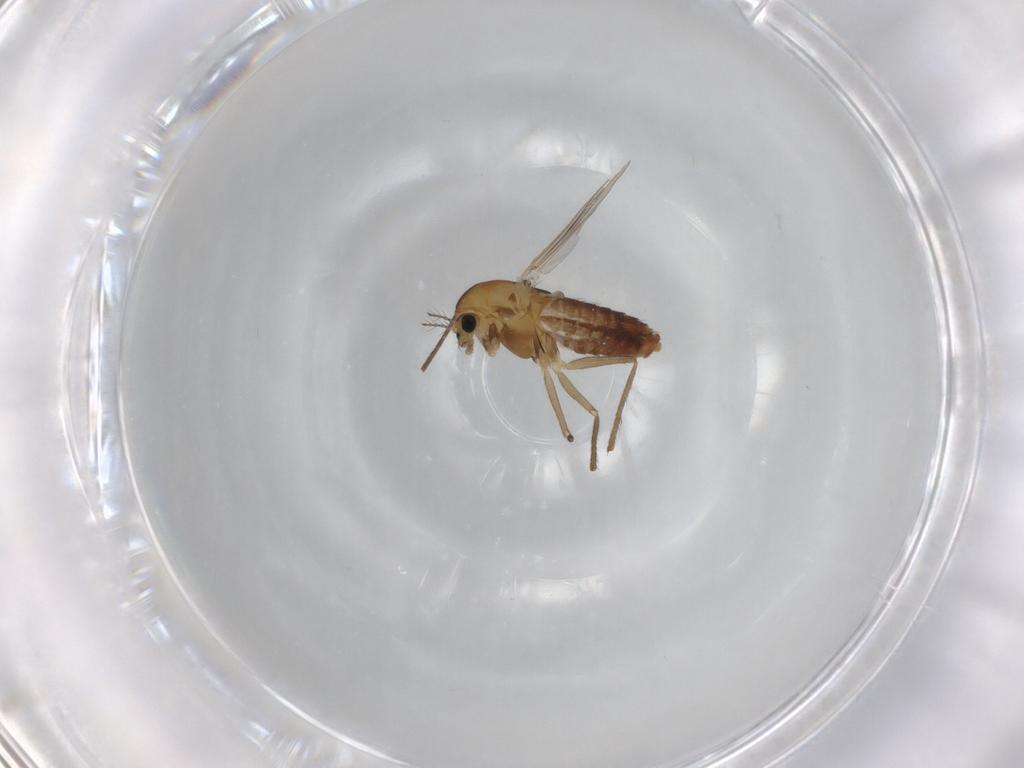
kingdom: Animalia
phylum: Arthropoda
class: Insecta
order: Diptera
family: Chironomidae
